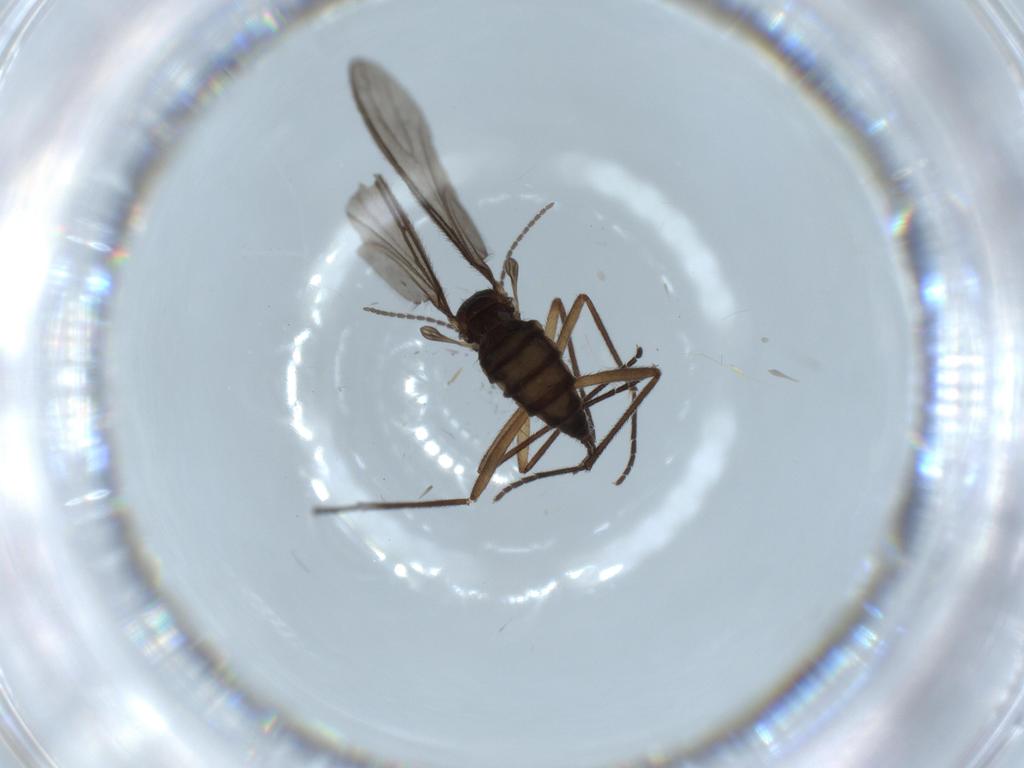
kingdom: Animalia
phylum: Arthropoda
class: Insecta
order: Diptera
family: Sciaridae
